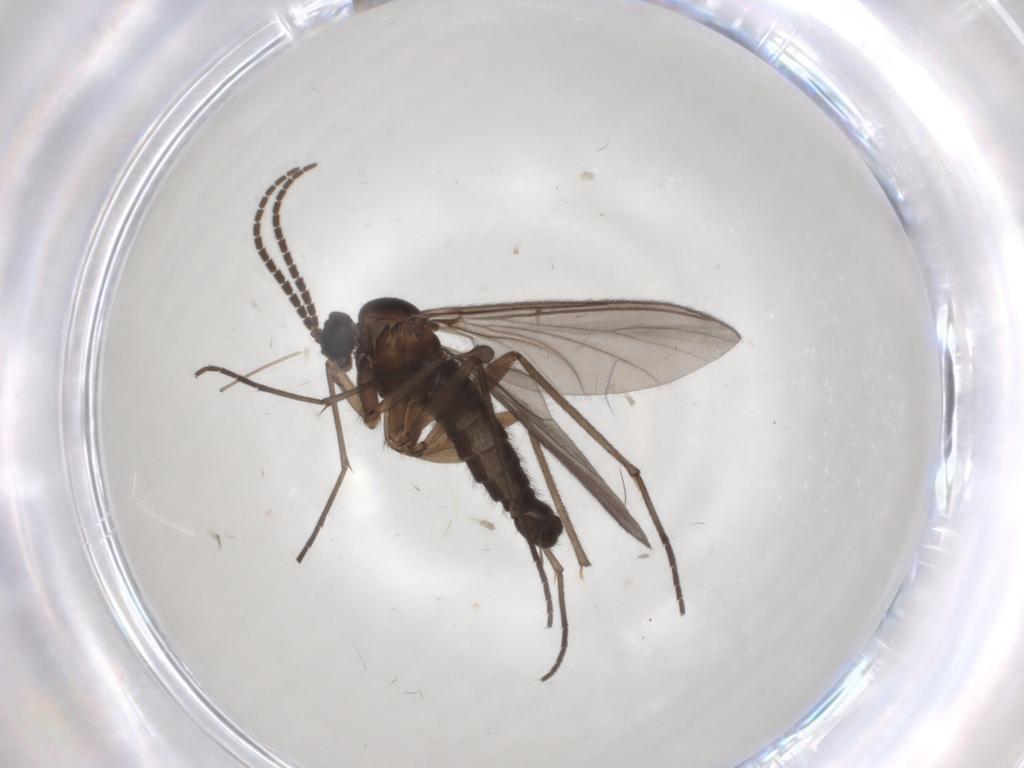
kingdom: Animalia
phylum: Arthropoda
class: Insecta
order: Diptera
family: Sciaridae
